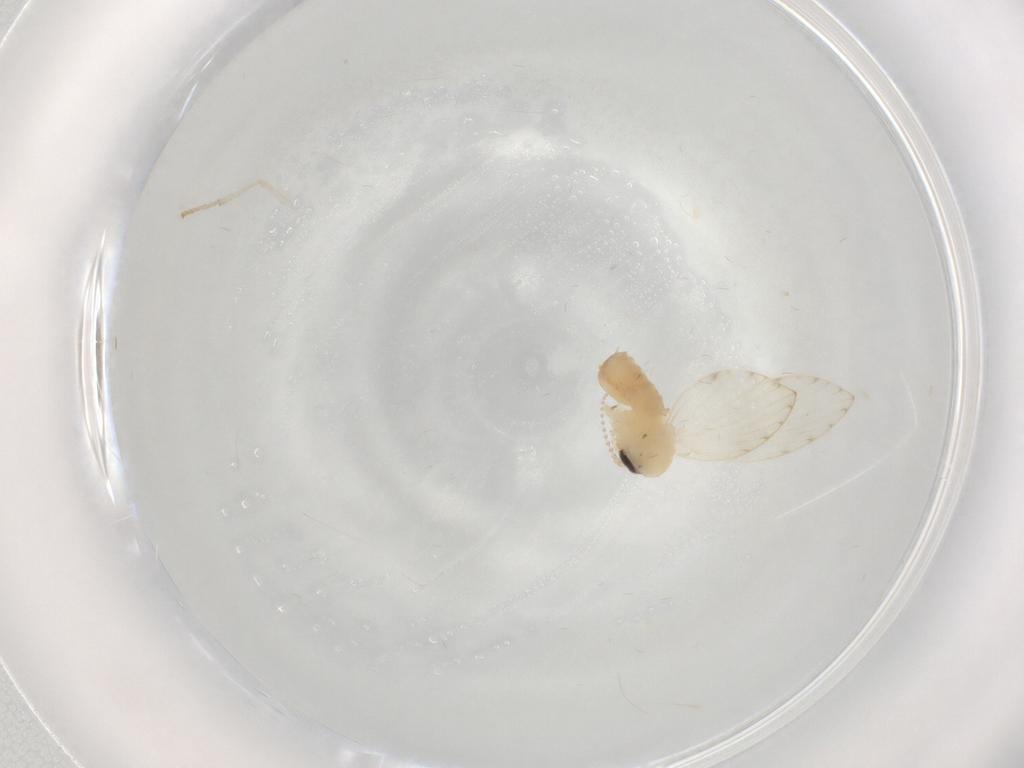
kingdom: Animalia
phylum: Arthropoda
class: Insecta
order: Diptera
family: Psychodidae
